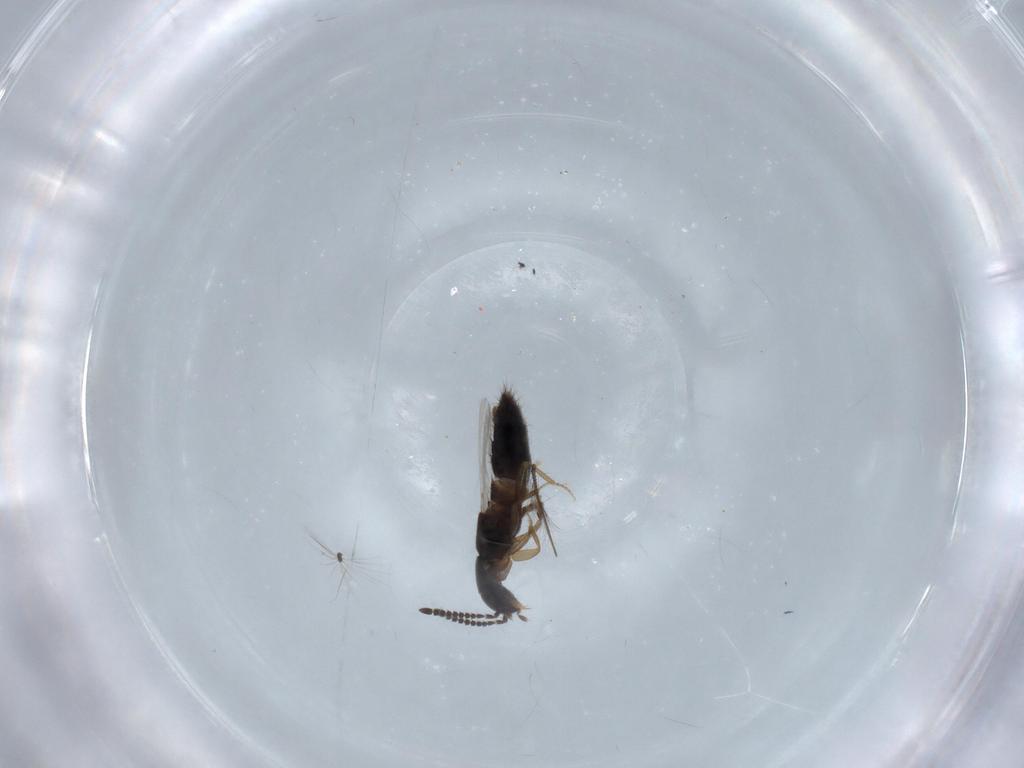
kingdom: Animalia
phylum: Arthropoda
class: Insecta
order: Coleoptera
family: Staphylinidae
